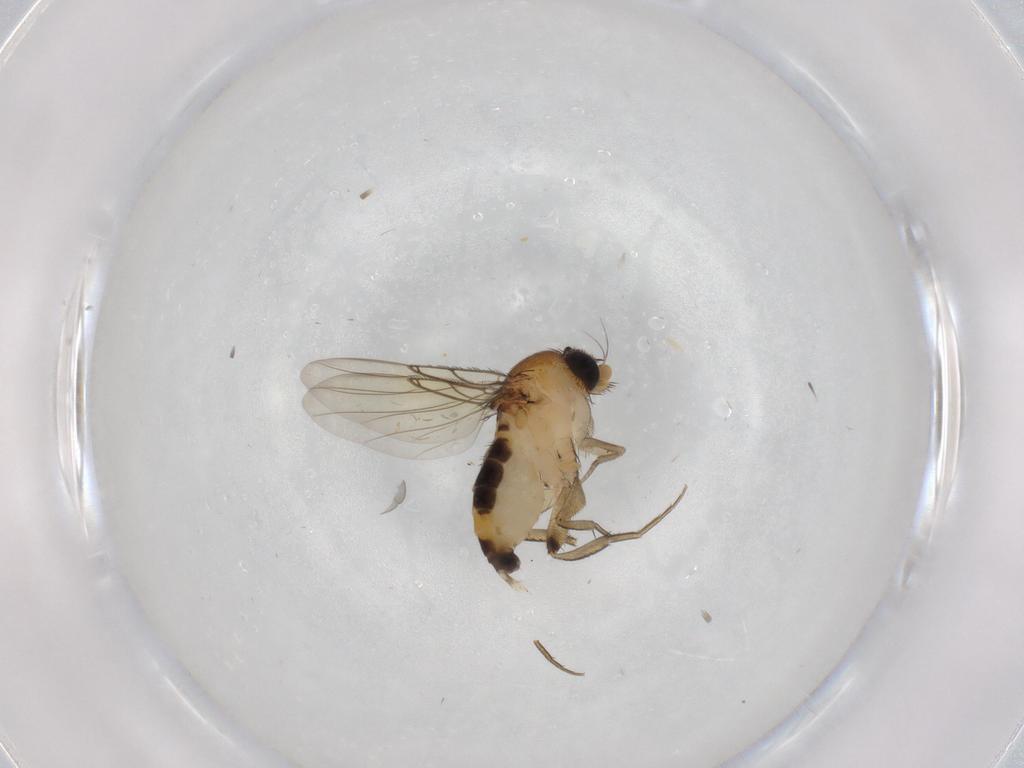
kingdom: Animalia
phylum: Arthropoda
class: Insecta
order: Diptera
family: Phoridae
